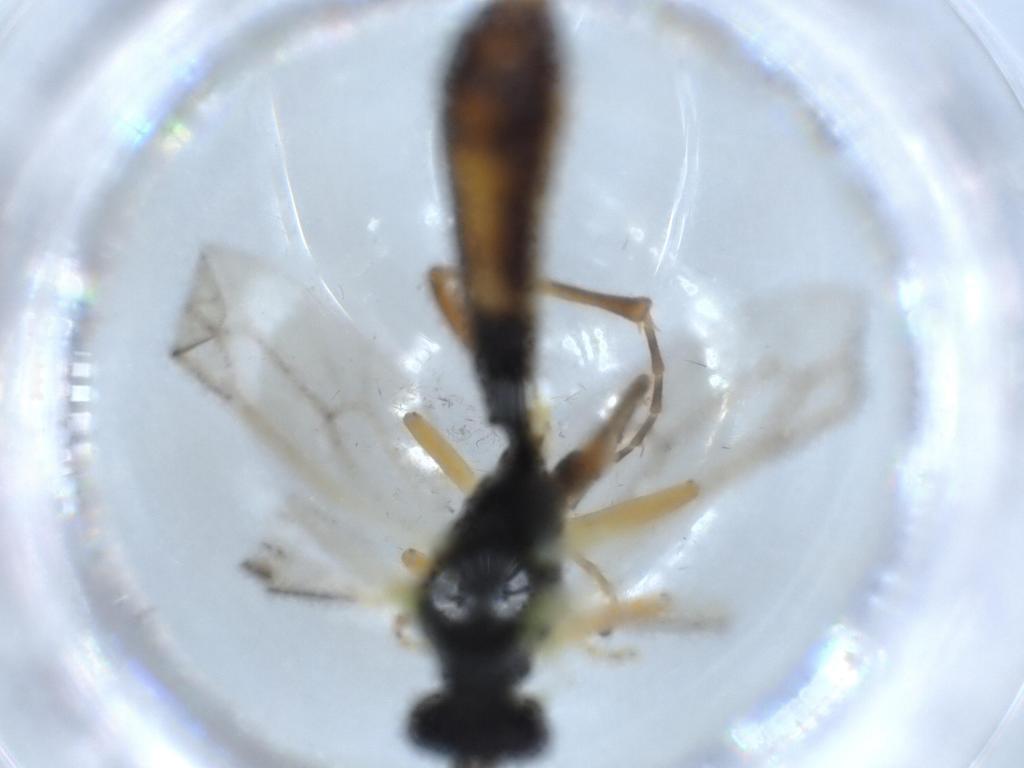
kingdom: Animalia
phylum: Arthropoda
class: Insecta
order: Hymenoptera
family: Ichneumonidae
